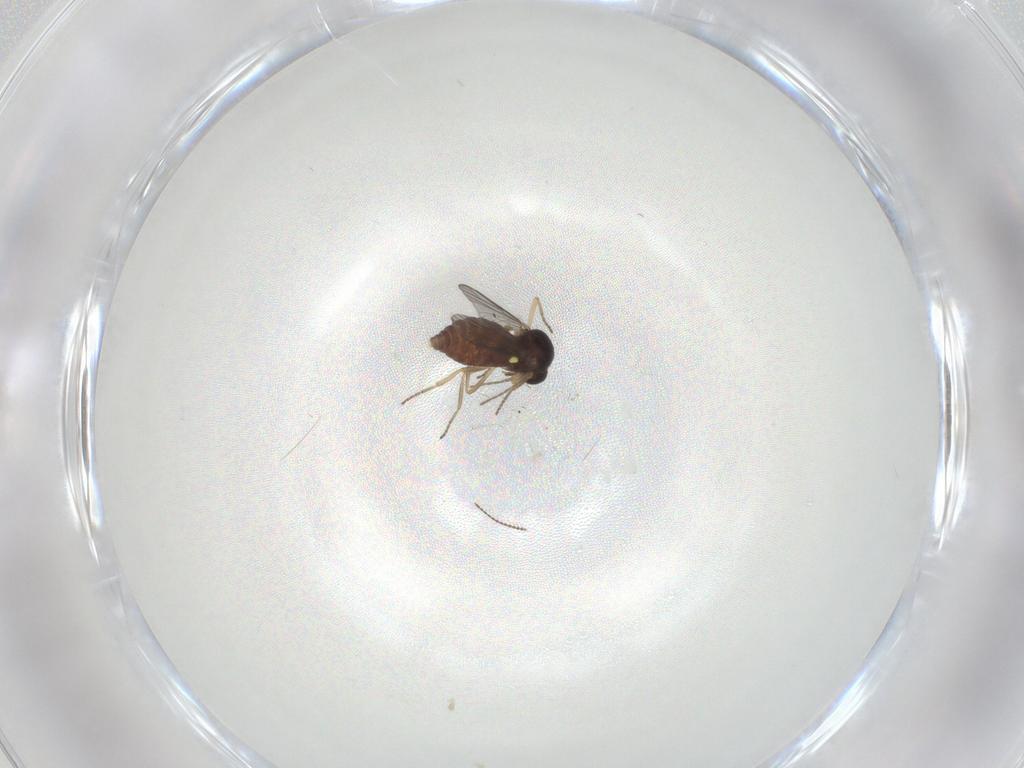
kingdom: Animalia
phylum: Arthropoda
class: Insecta
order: Diptera
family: Ceratopogonidae
